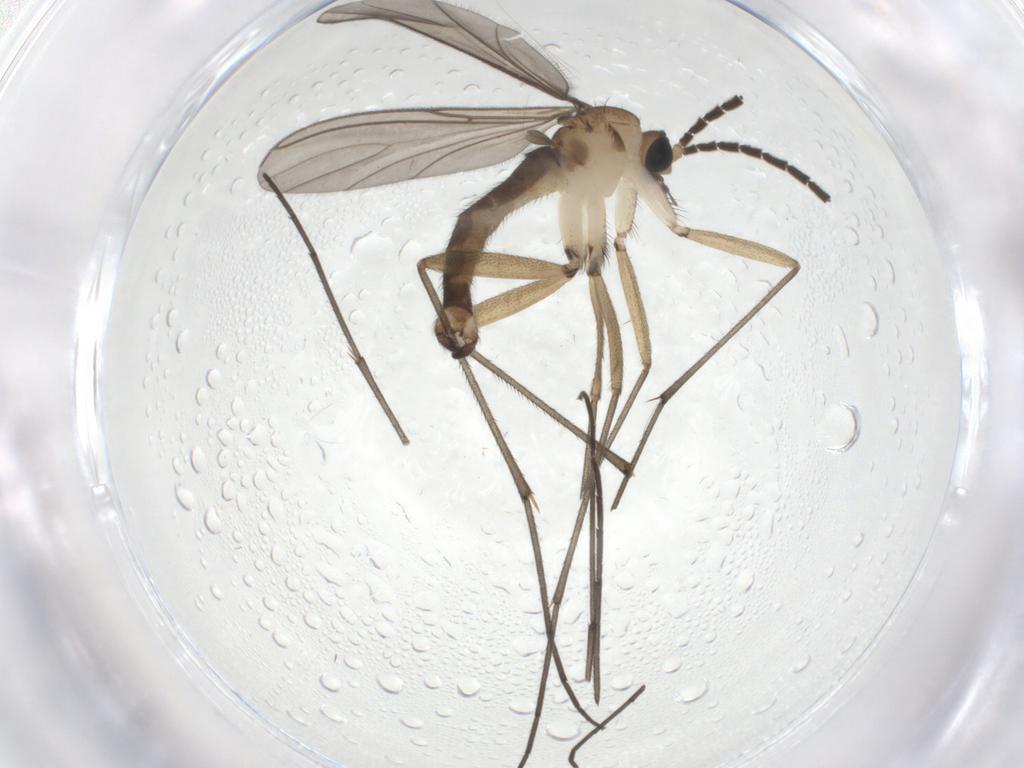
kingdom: Animalia
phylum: Arthropoda
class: Insecta
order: Diptera
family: Sciaridae
